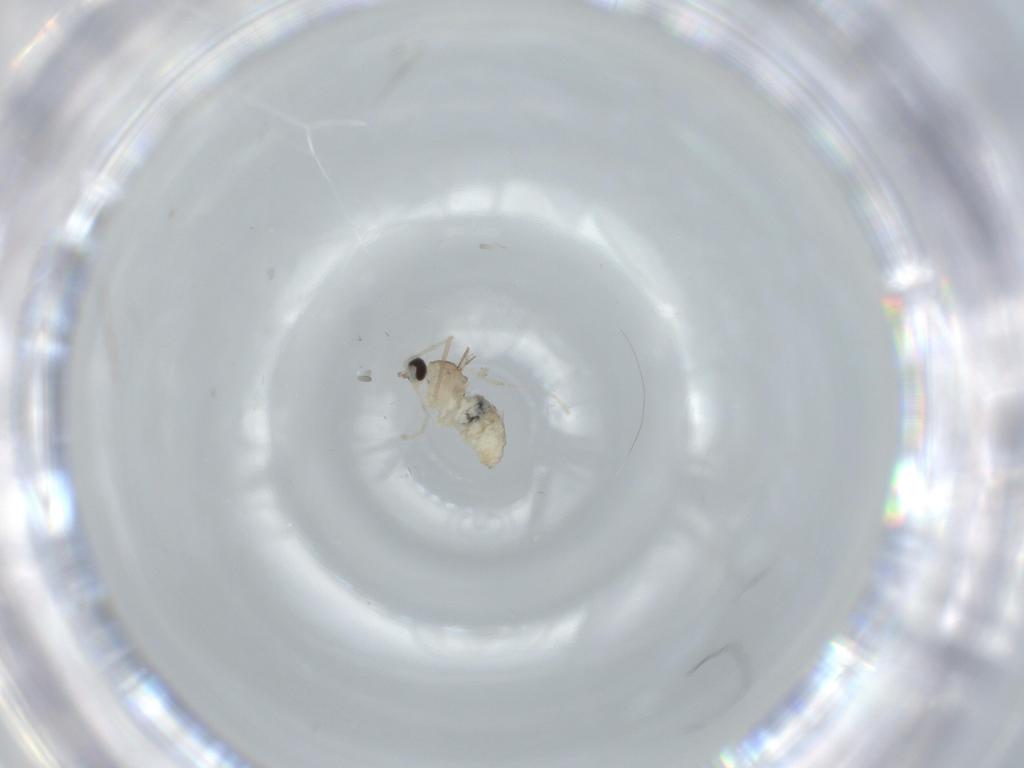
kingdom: Animalia
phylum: Arthropoda
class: Insecta
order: Diptera
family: Cecidomyiidae
